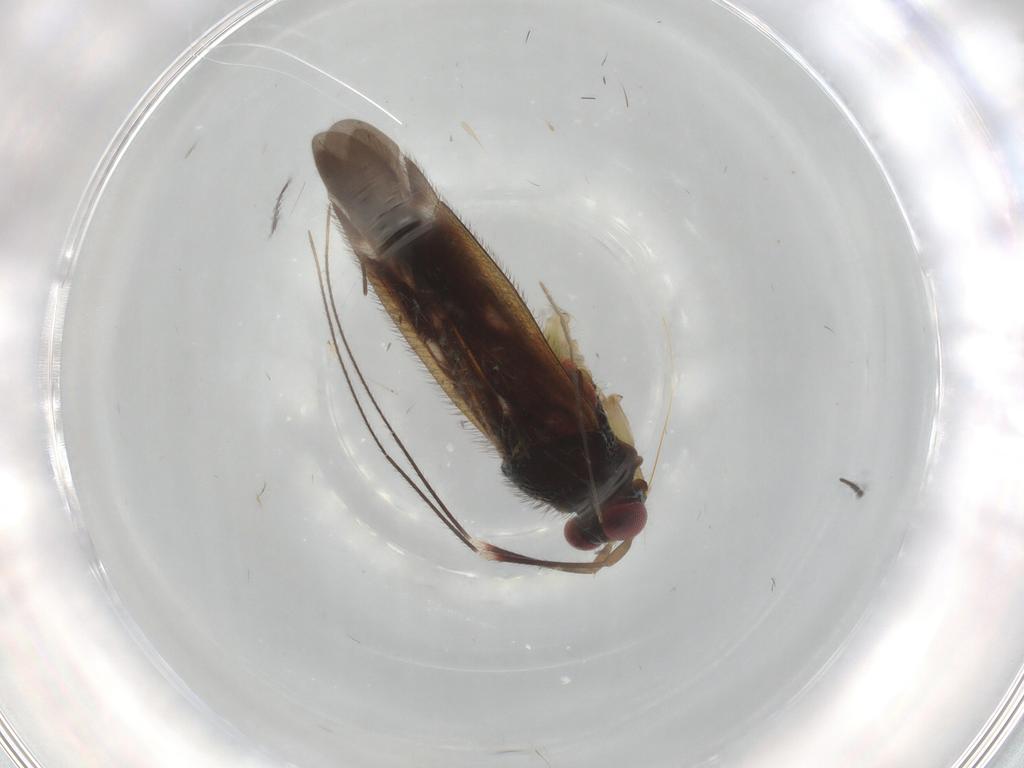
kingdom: Animalia
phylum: Arthropoda
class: Insecta
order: Hemiptera
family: Miridae
